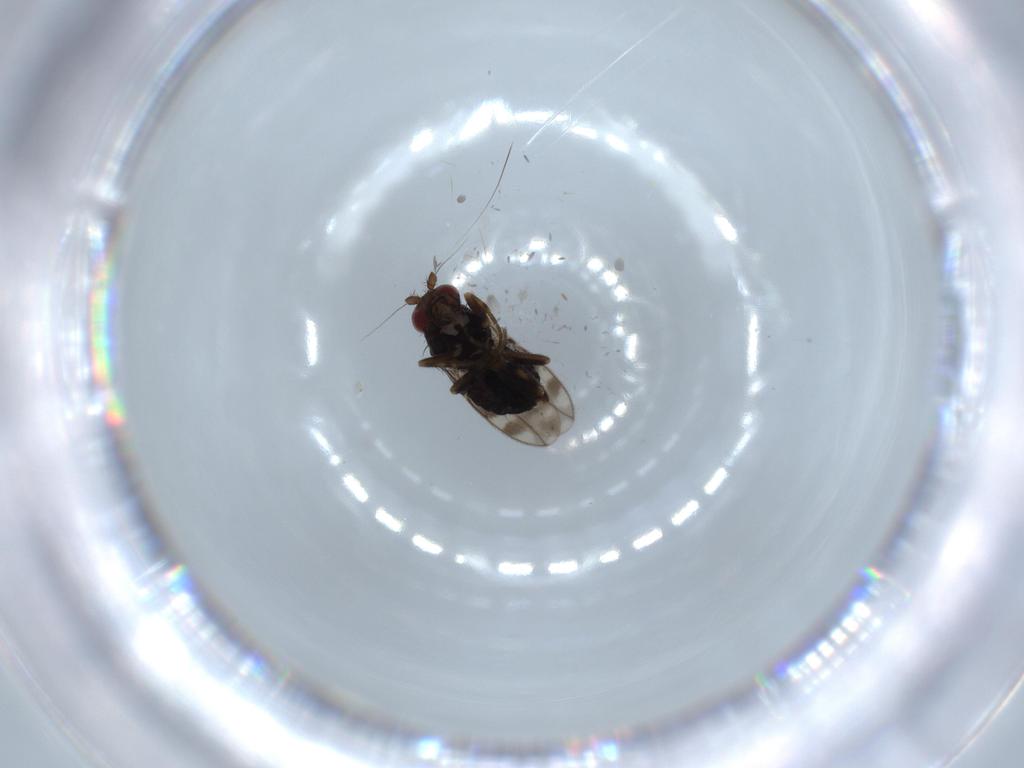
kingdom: Animalia
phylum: Arthropoda
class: Insecta
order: Diptera
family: Sphaeroceridae
